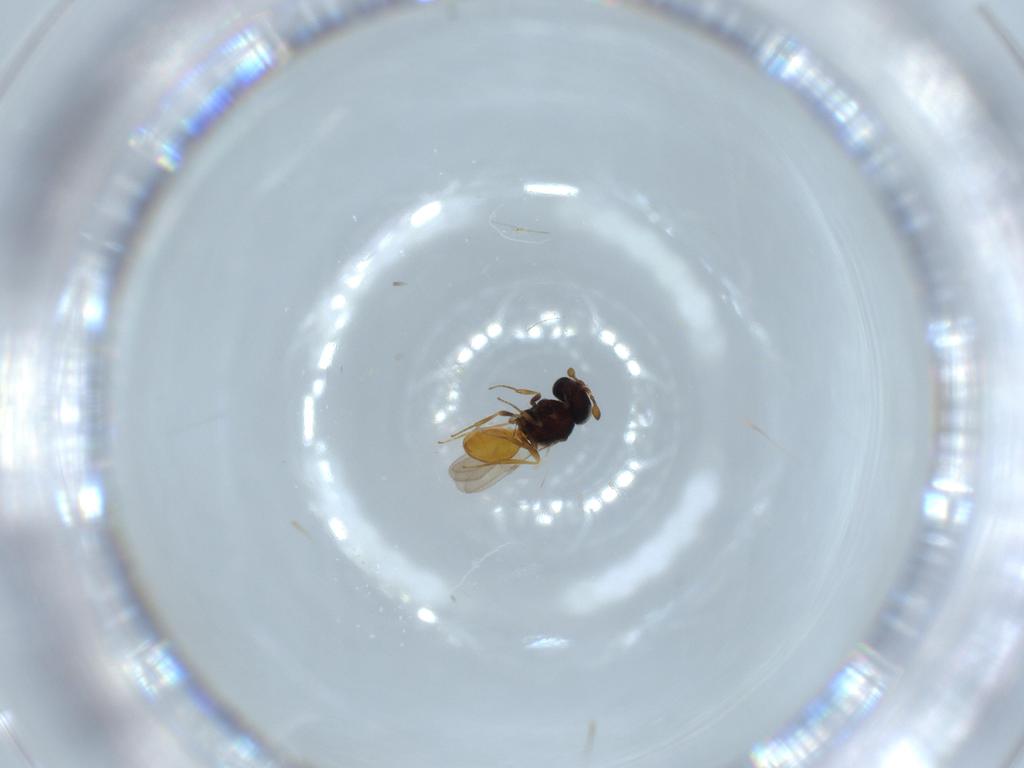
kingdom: Animalia
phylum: Arthropoda
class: Insecta
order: Hymenoptera
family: Scelionidae
